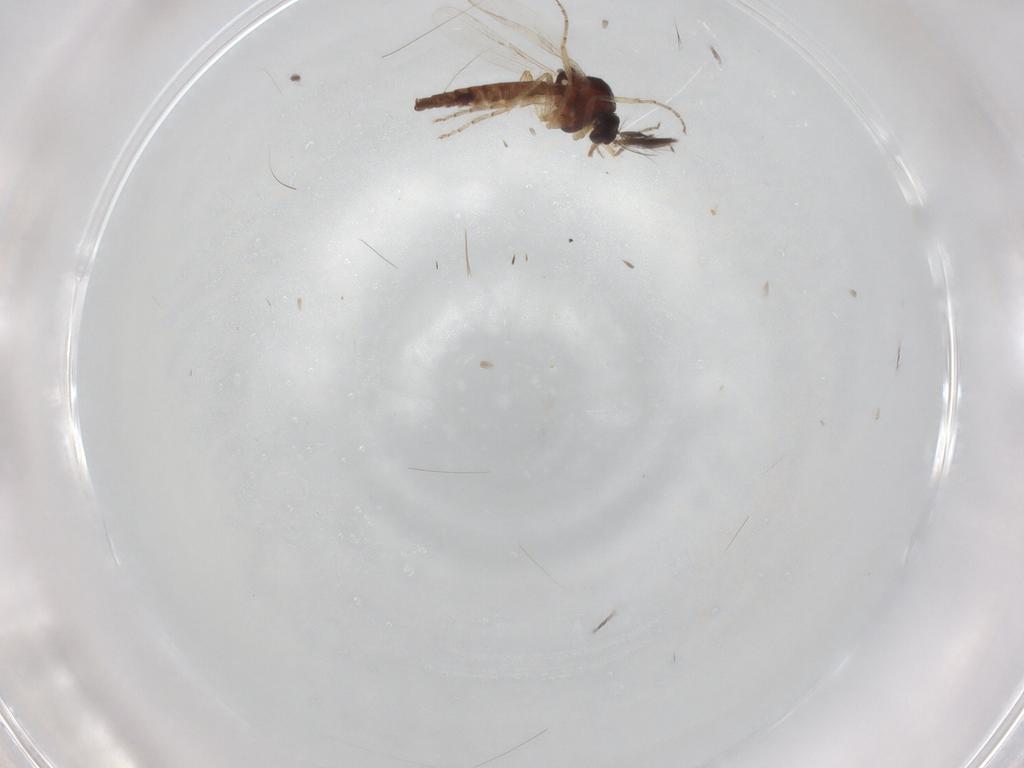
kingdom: Animalia
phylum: Arthropoda
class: Insecta
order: Diptera
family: Ceratopogonidae
